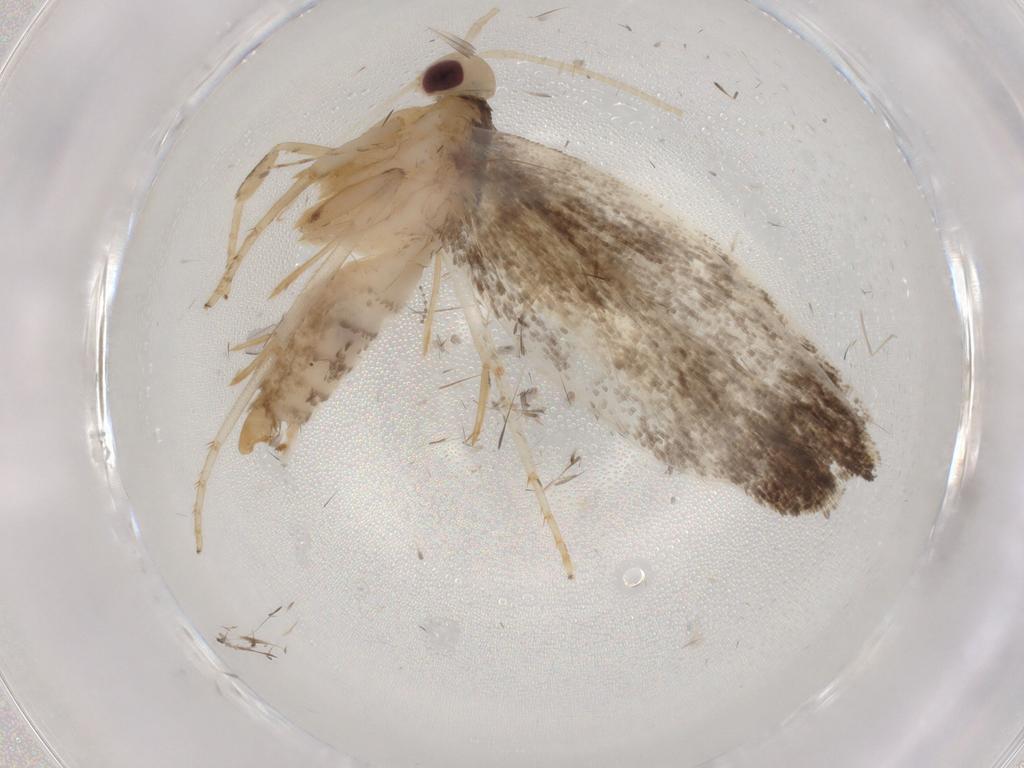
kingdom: Animalia
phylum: Arthropoda
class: Insecta
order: Lepidoptera
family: Gelechiidae
